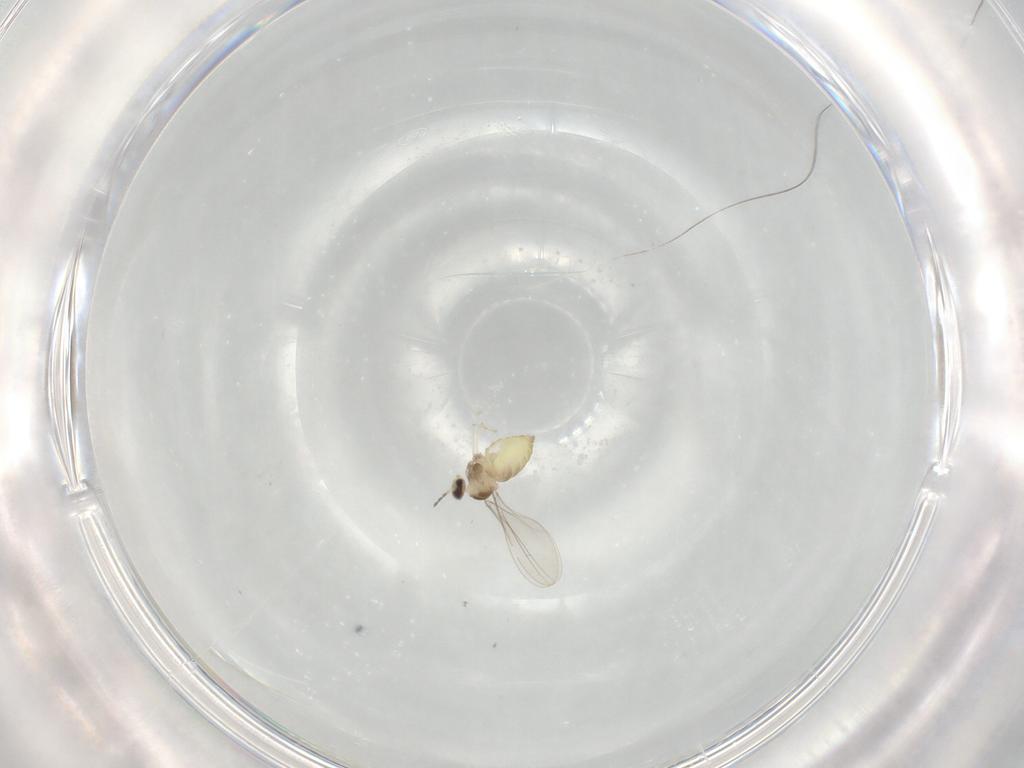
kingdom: Animalia
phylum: Arthropoda
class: Insecta
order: Diptera
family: Cecidomyiidae
